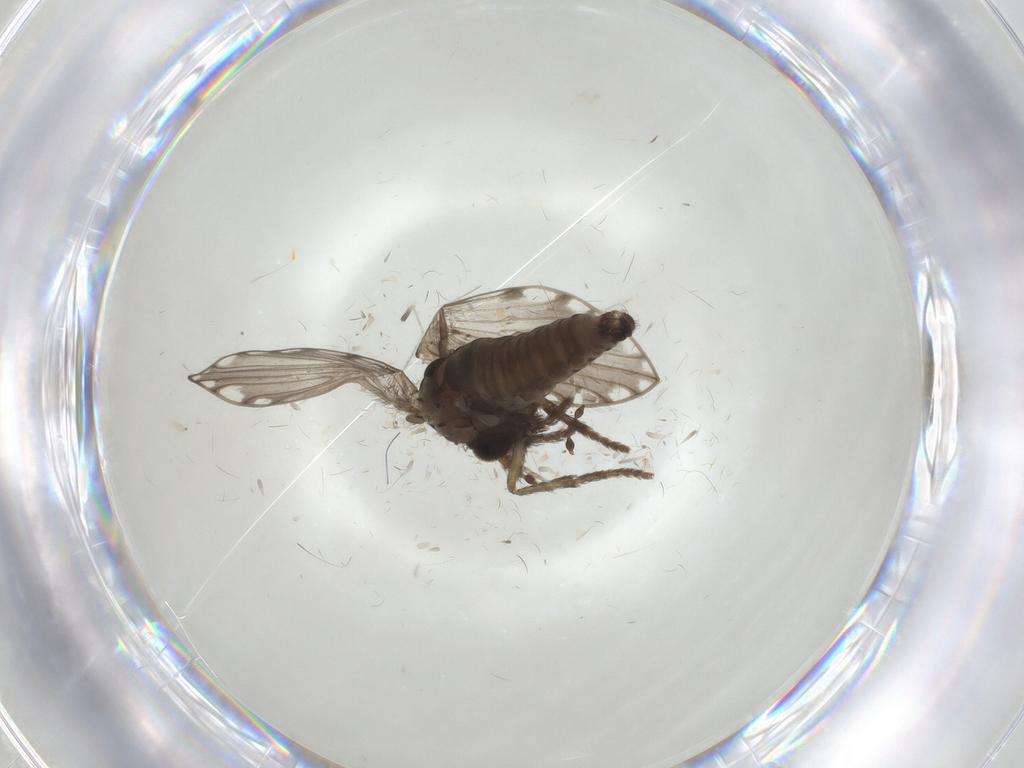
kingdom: Animalia
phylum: Arthropoda
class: Insecta
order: Diptera
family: Psychodidae
